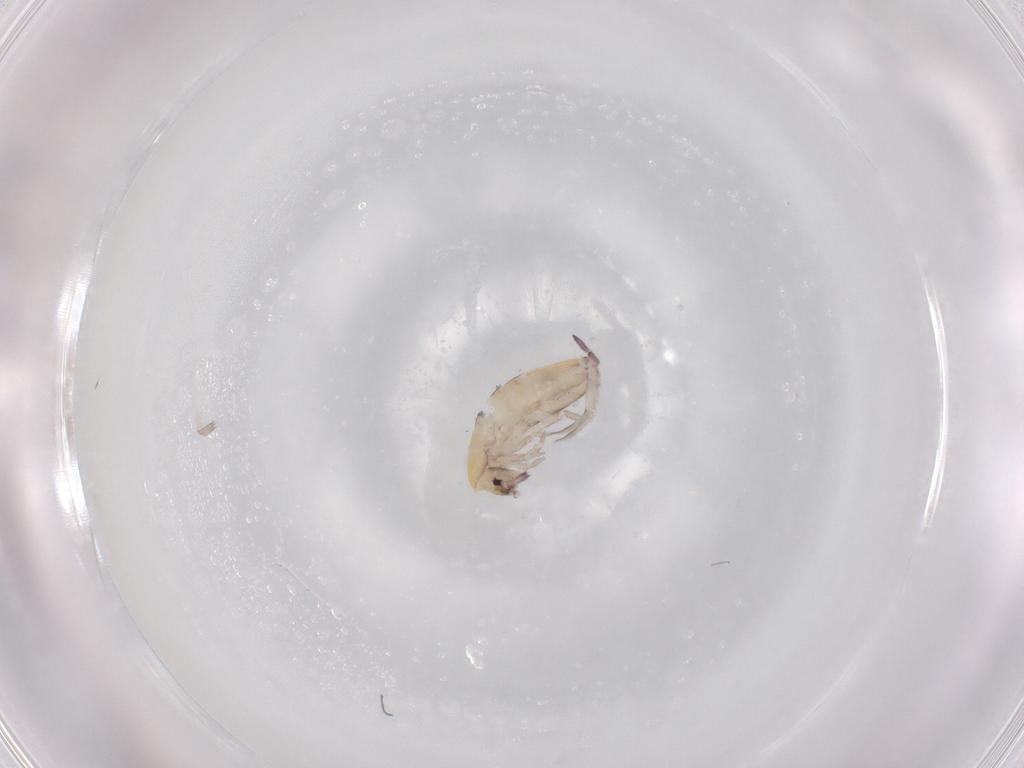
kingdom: Animalia
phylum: Arthropoda
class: Collembola
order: Entomobryomorpha
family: Entomobryidae
